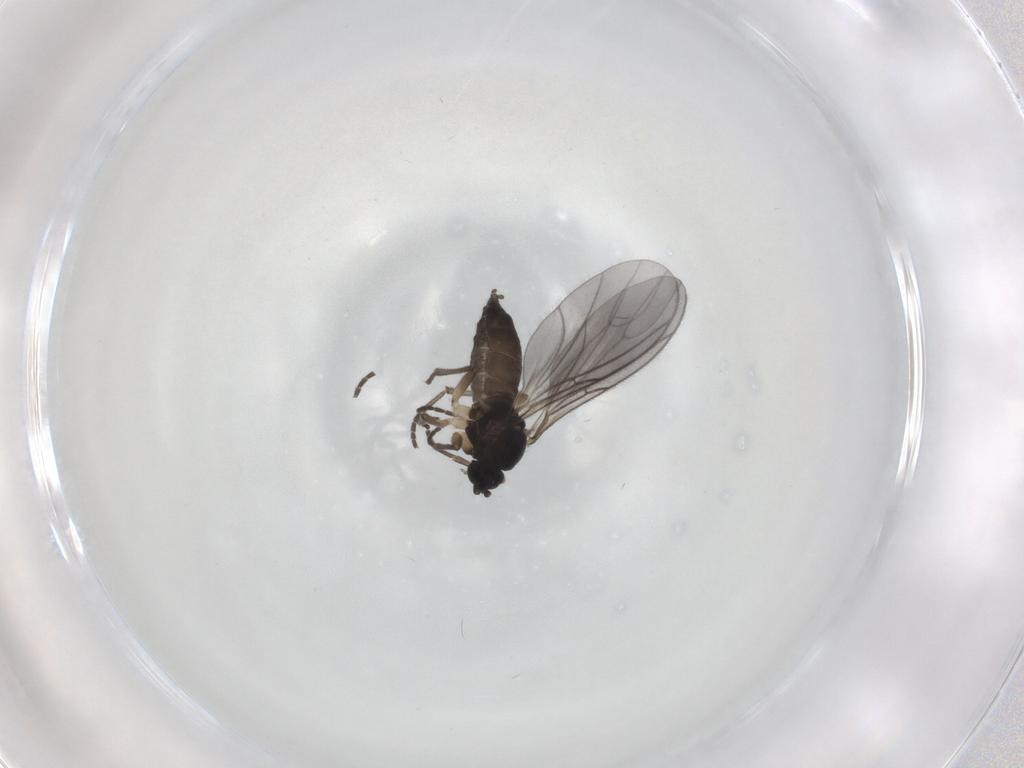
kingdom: Animalia
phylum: Arthropoda
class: Insecta
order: Diptera
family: Sciaridae
